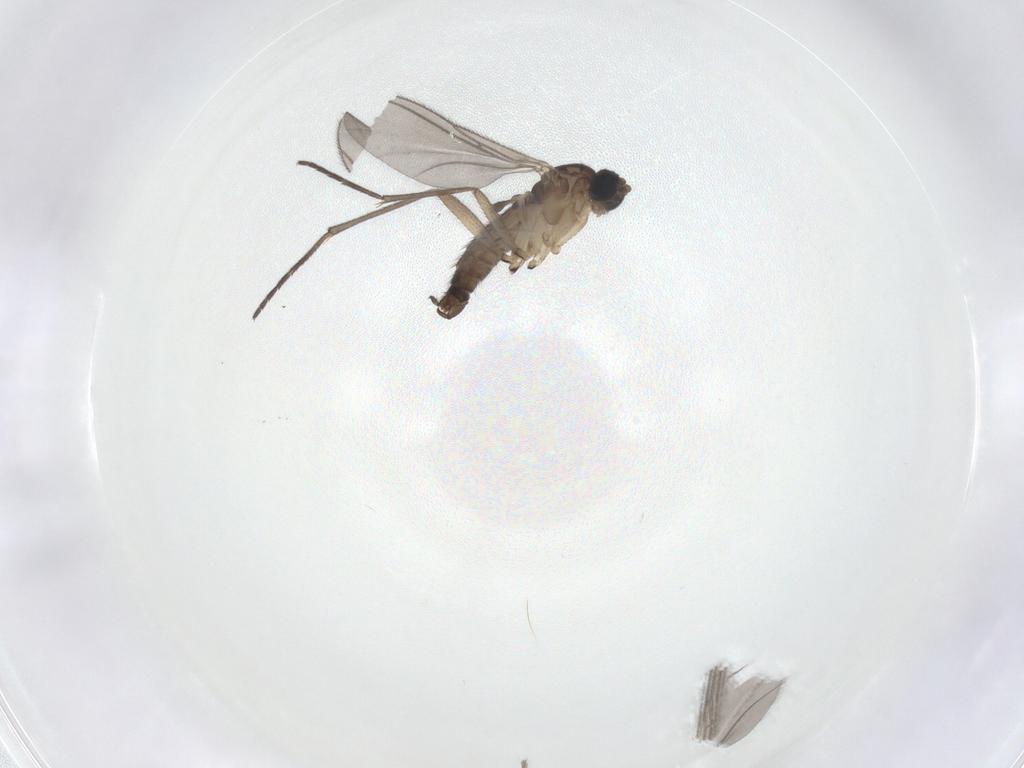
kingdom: Animalia
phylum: Arthropoda
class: Insecta
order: Diptera
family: Sciaridae
